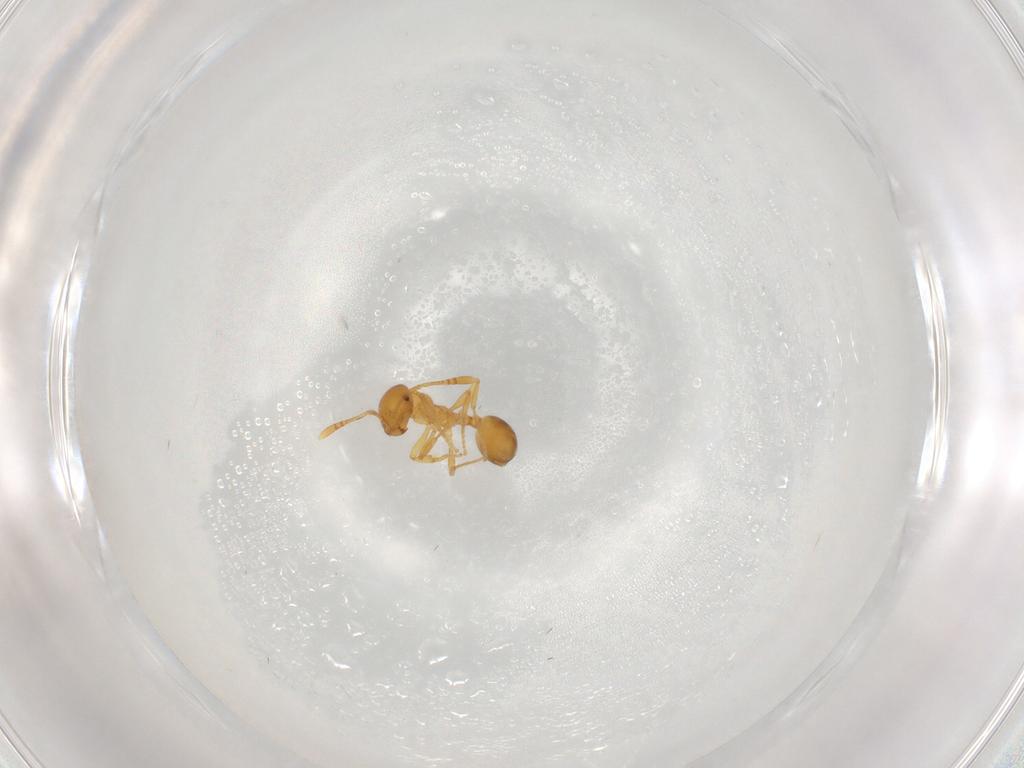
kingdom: Animalia
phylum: Arthropoda
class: Insecta
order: Hymenoptera
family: Formicidae
